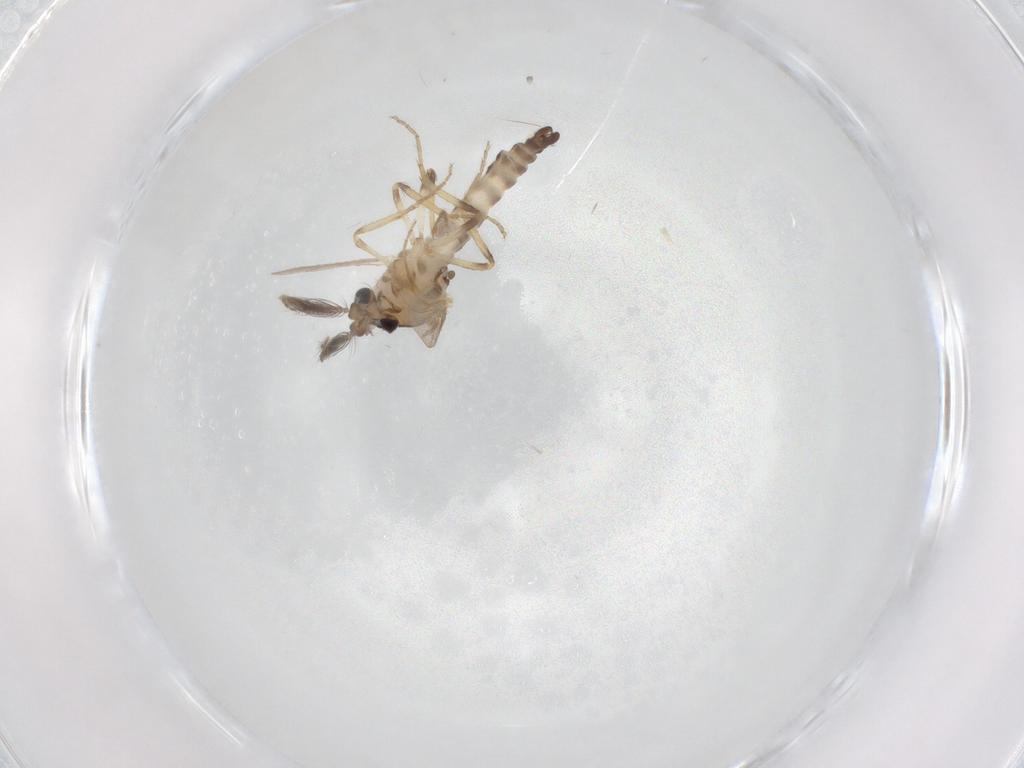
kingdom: Animalia
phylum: Arthropoda
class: Insecta
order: Diptera
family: Ceratopogonidae
